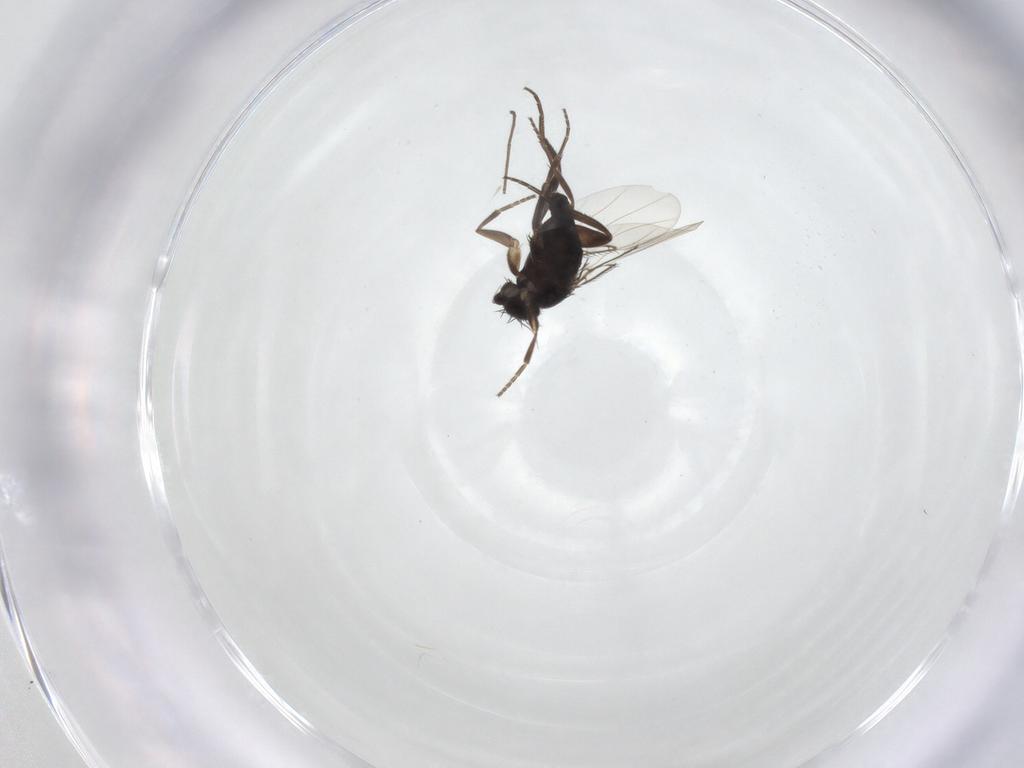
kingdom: Animalia
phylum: Arthropoda
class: Insecta
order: Diptera
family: Chironomidae
